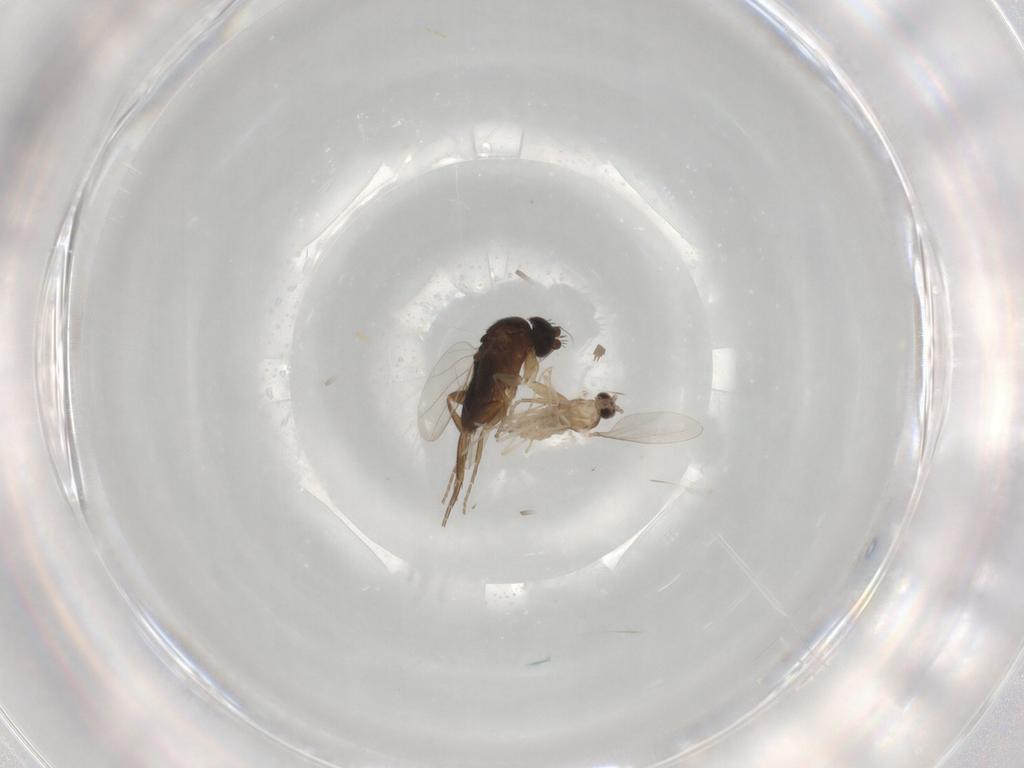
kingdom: Animalia
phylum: Arthropoda
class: Insecta
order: Diptera
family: Phoridae
